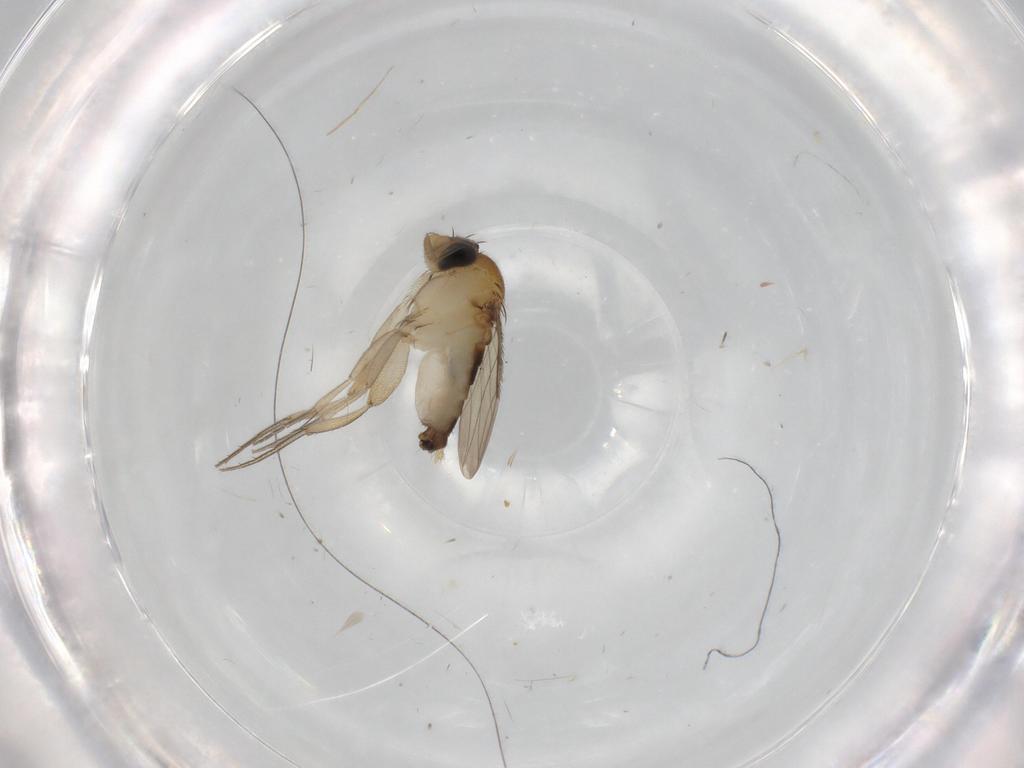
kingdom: Animalia
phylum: Arthropoda
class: Insecta
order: Diptera
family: Phoridae
